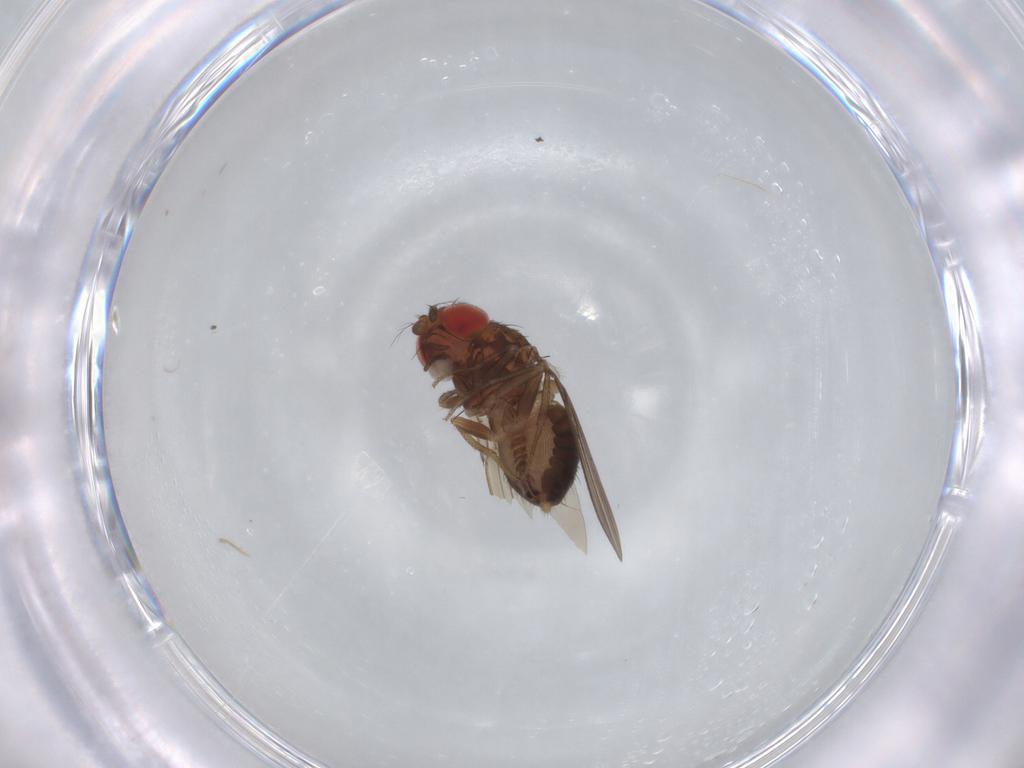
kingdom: Animalia
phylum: Arthropoda
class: Insecta
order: Diptera
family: Drosophilidae
